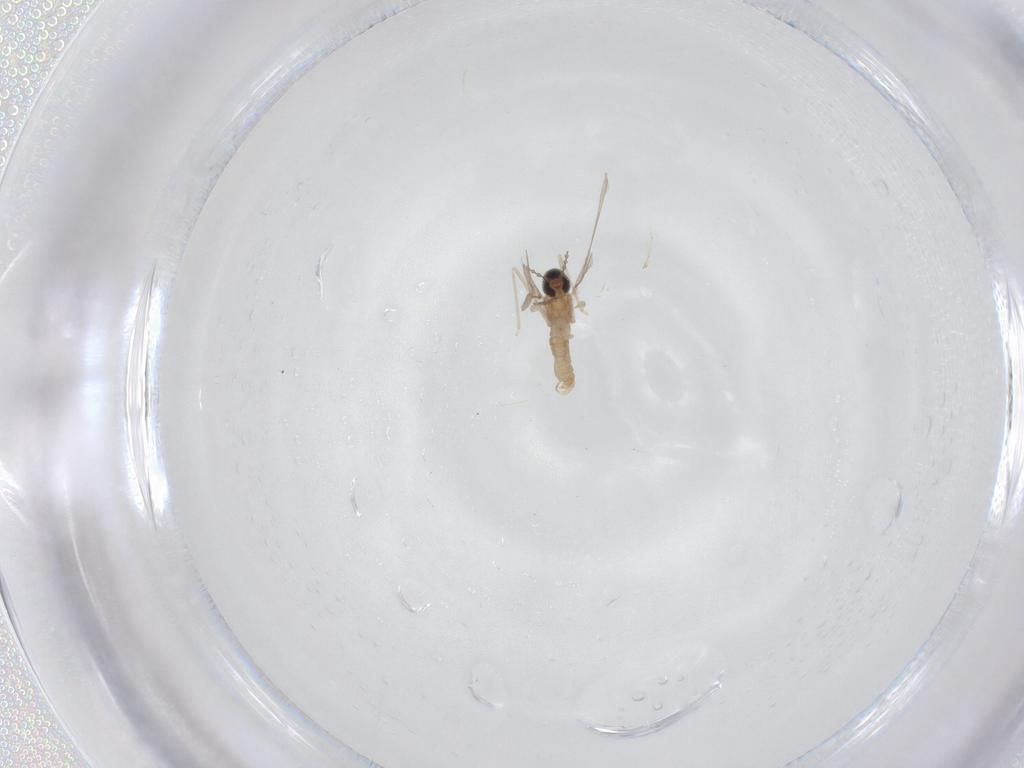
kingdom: Animalia
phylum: Arthropoda
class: Insecta
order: Diptera
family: Cecidomyiidae
